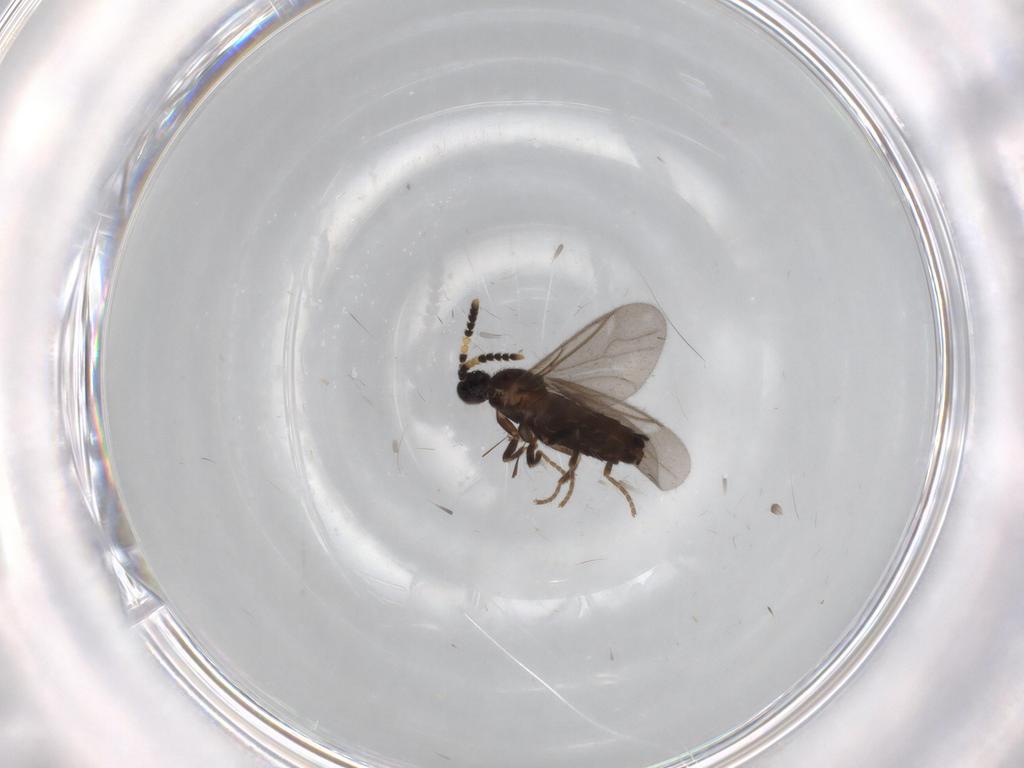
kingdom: Animalia
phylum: Arthropoda
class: Insecta
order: Diptera
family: Scatopsidae
